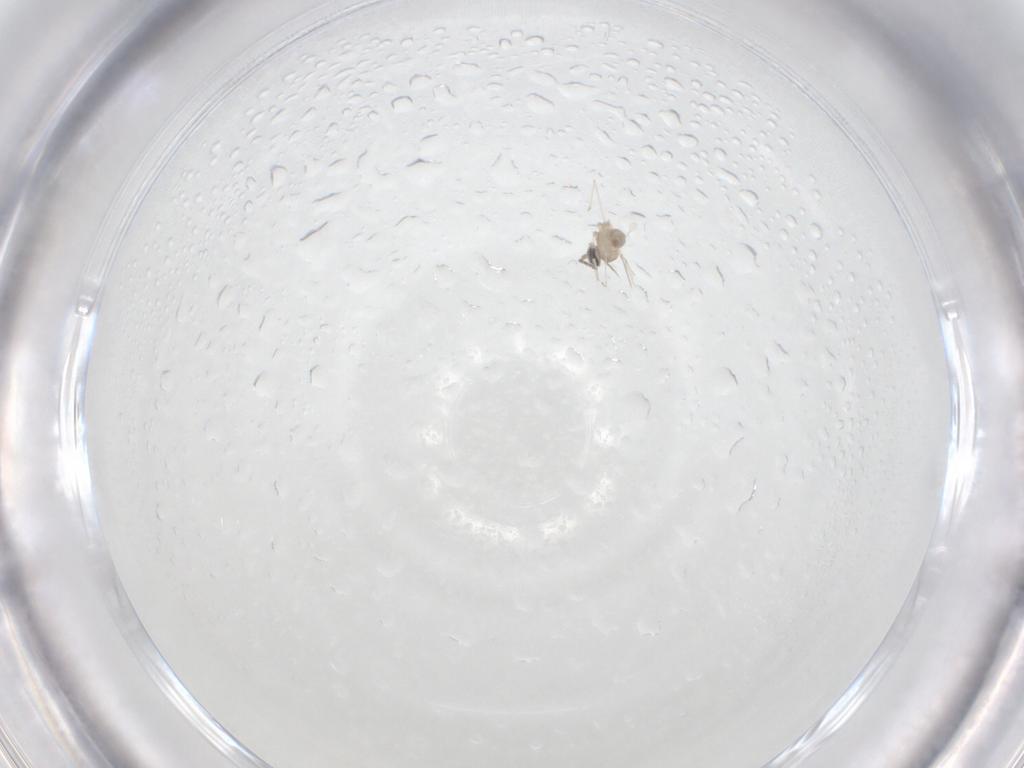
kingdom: Animalia
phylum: Arthropoda
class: Insecta
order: Diptera
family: Cecidomyiidae
